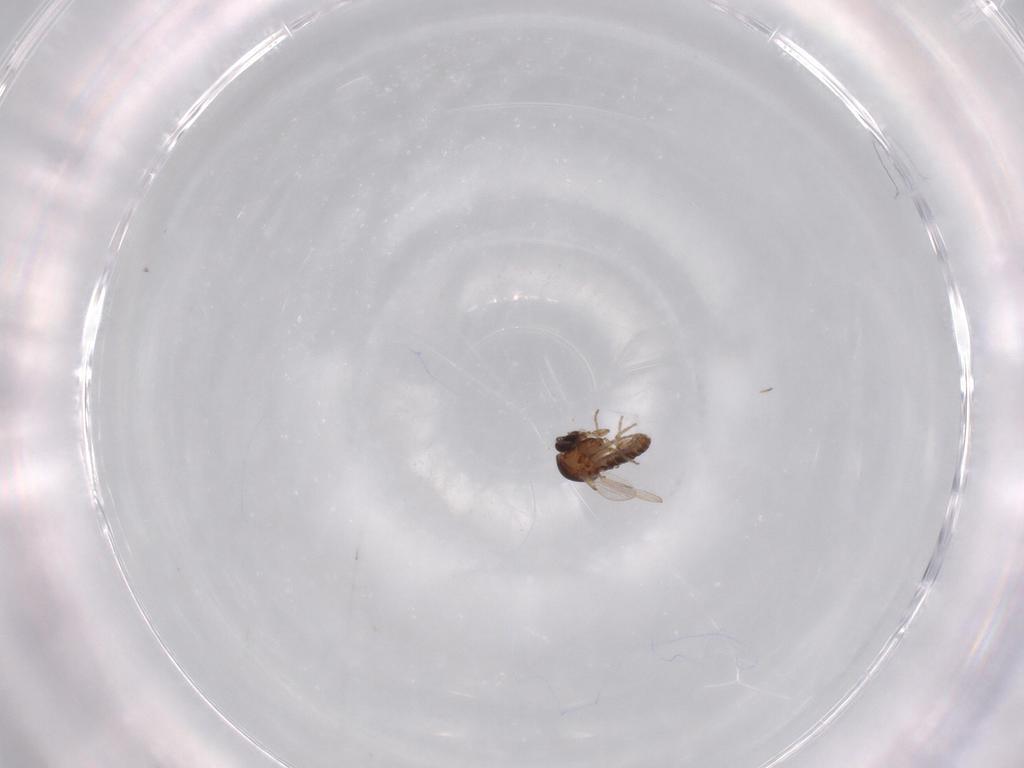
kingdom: Animalia
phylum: Arthropoda
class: Insecta
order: Diptera
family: Ceratopogonidae
